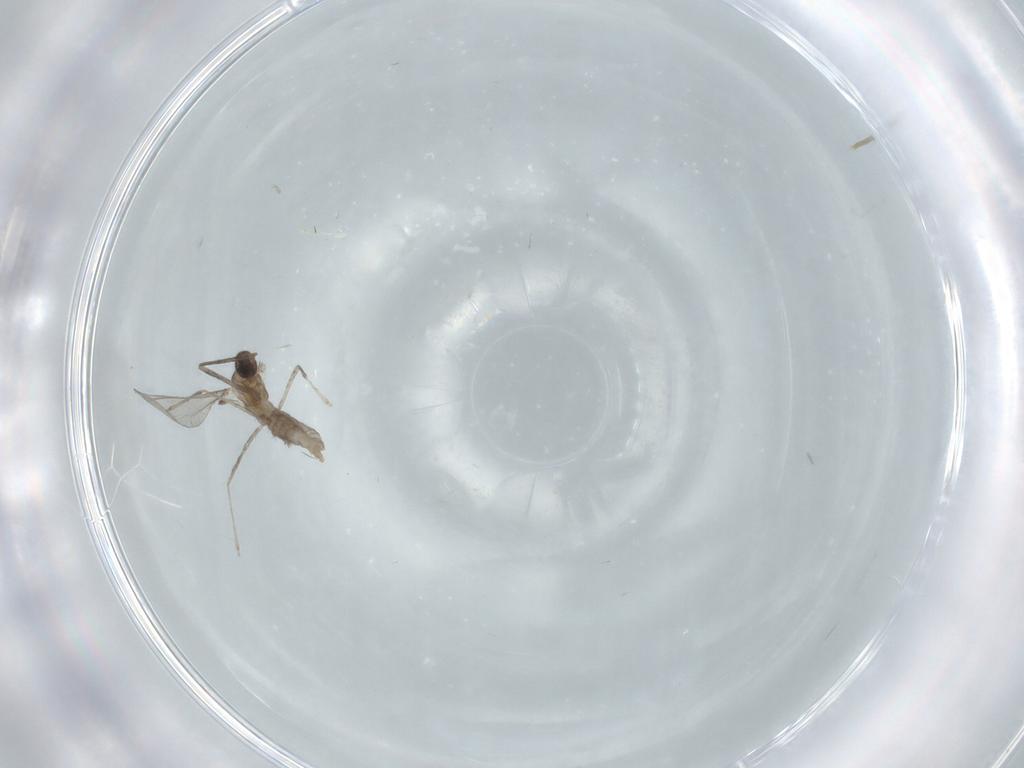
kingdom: Animalia
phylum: Arthropoda
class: Insecta
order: Diptera
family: Cecidomyiidae
